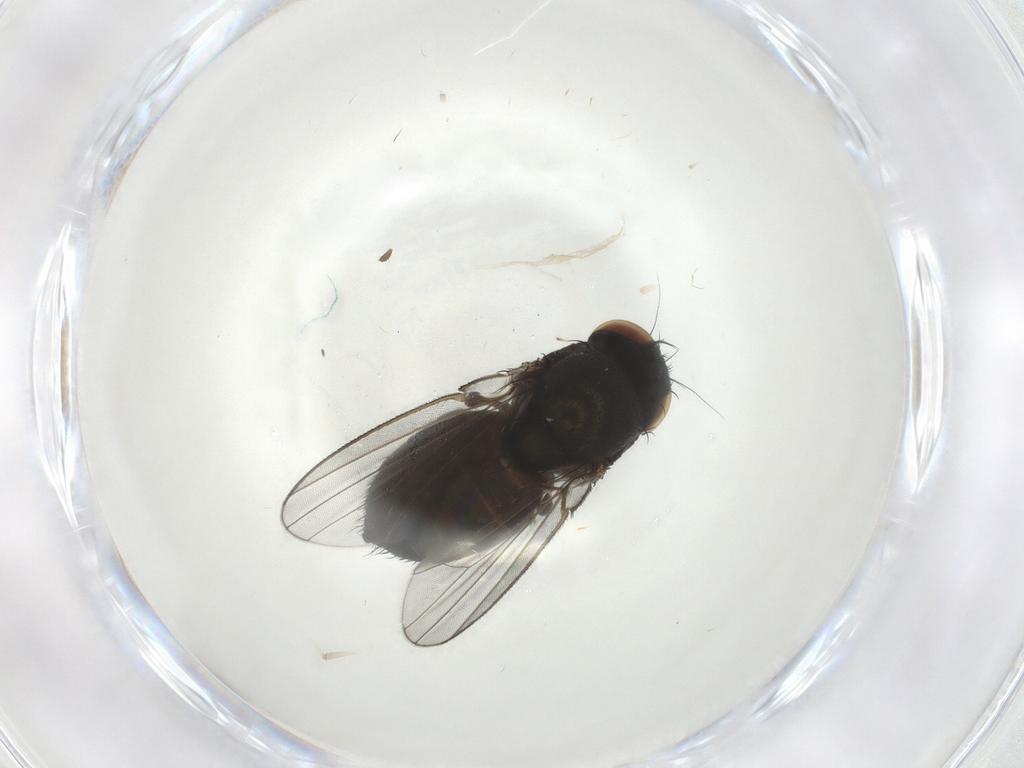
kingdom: Animalia
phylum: Arthropoda
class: Insecta
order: Diptera
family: Milichiidae
